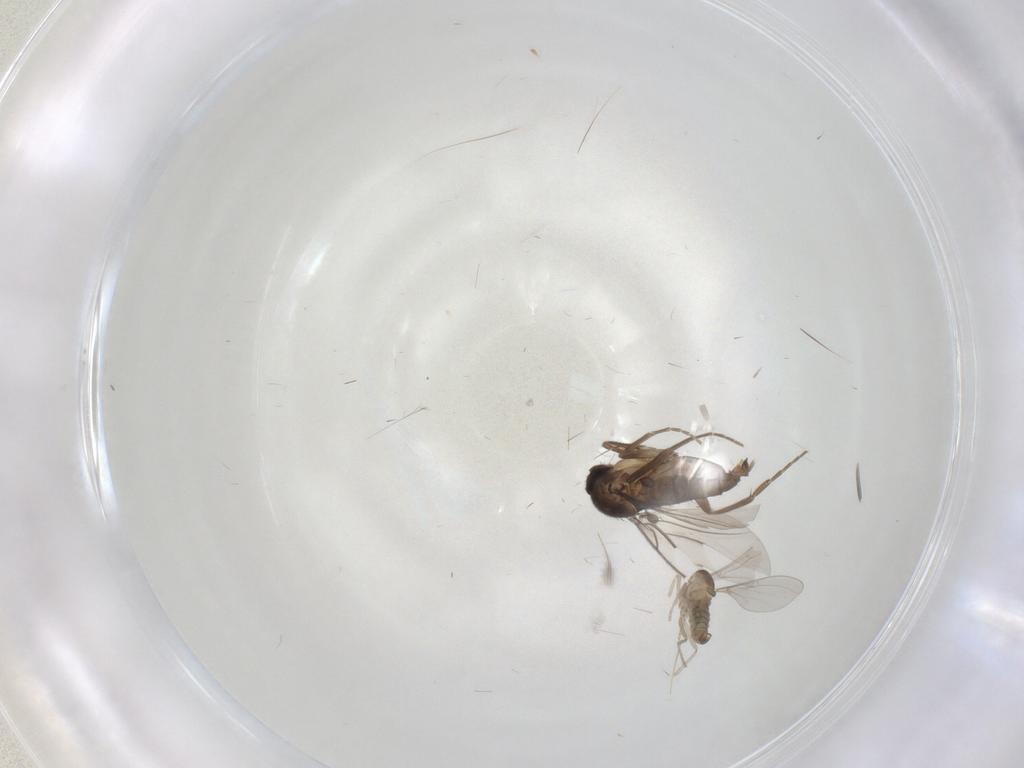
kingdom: Animalia
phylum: Arthropoda
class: Insecta
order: Diptera
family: Phoridae
